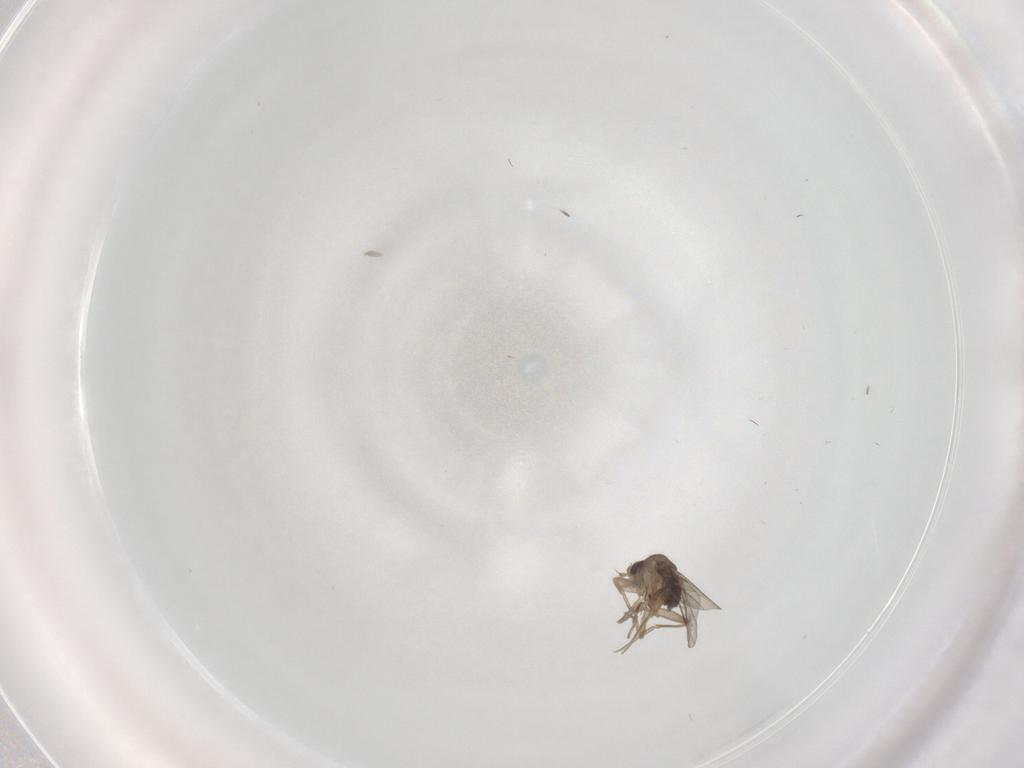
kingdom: Animalia
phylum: Arthropoda
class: Insecta
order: Diptera
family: Phoridae
